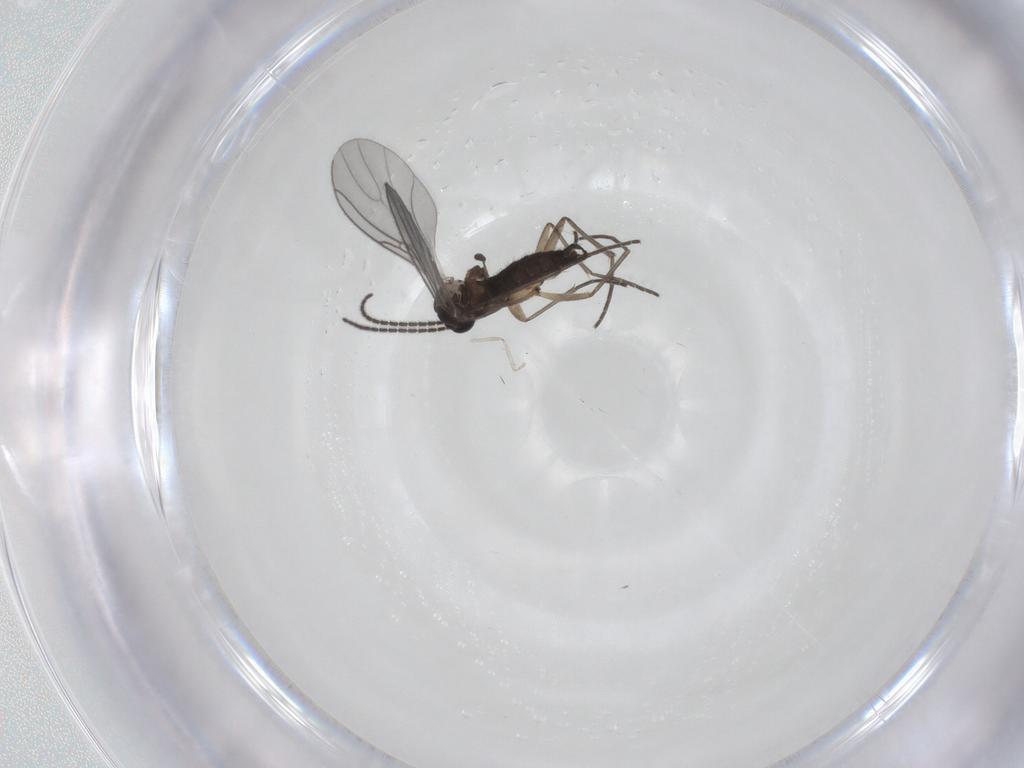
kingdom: Animalia
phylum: Arthropoda
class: Insecta
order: Diptera
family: Sciaridae
